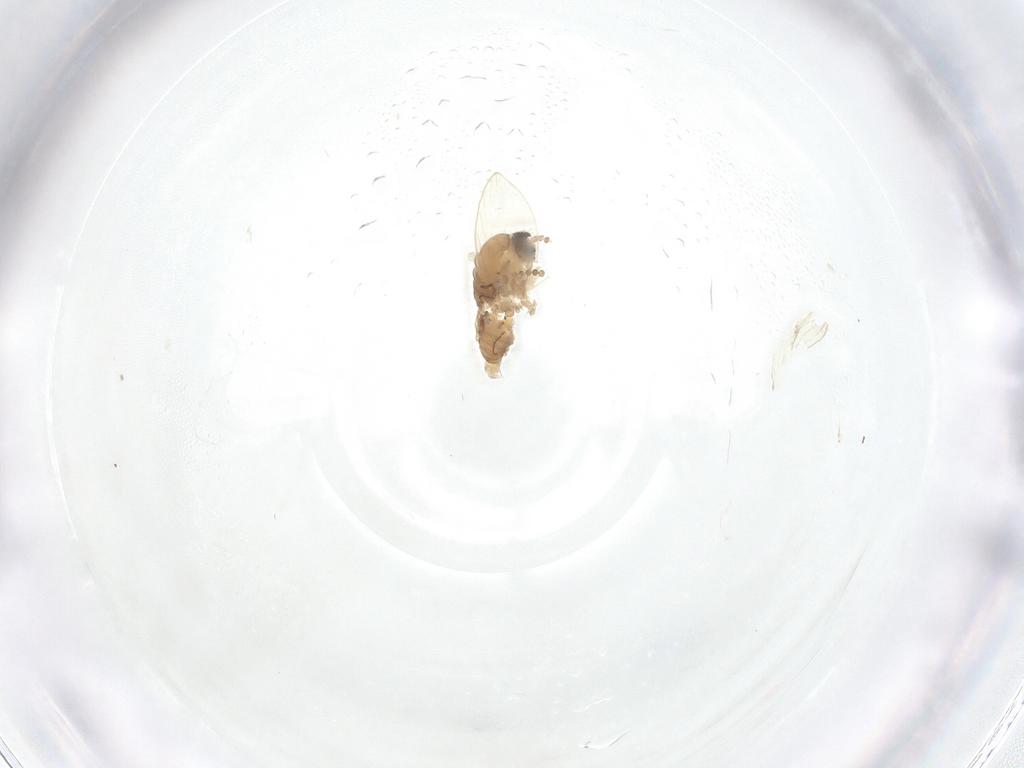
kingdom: Animalia
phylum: Arthropoda
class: Insecta
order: Diptera
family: Psychodidae
